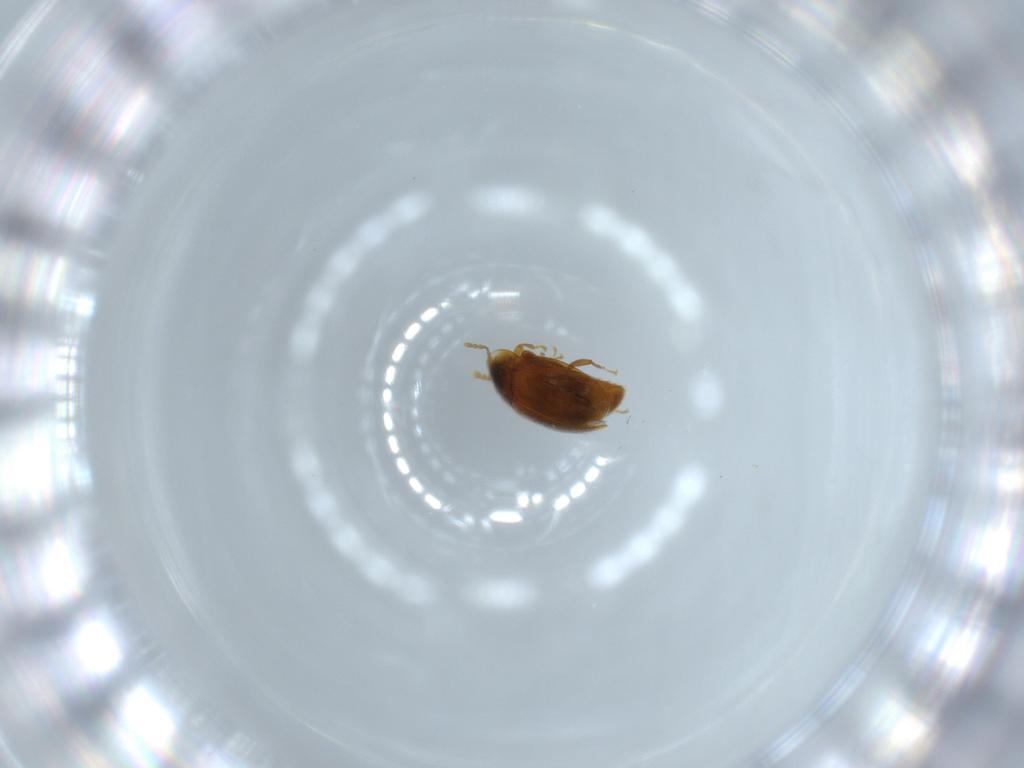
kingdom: Animalia
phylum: Arthropoda
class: Insecta
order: Coleoptera
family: Corylophidae
